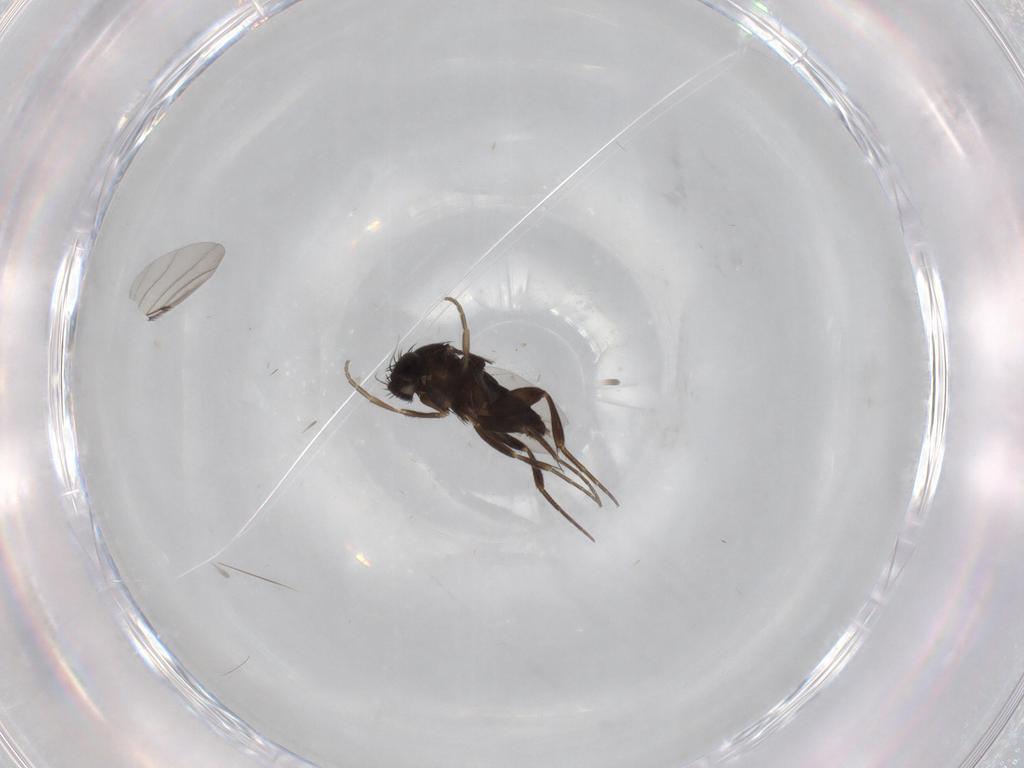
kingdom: Animalia
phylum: Arthropoda
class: Insecta
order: Diptera
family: Phoridae
